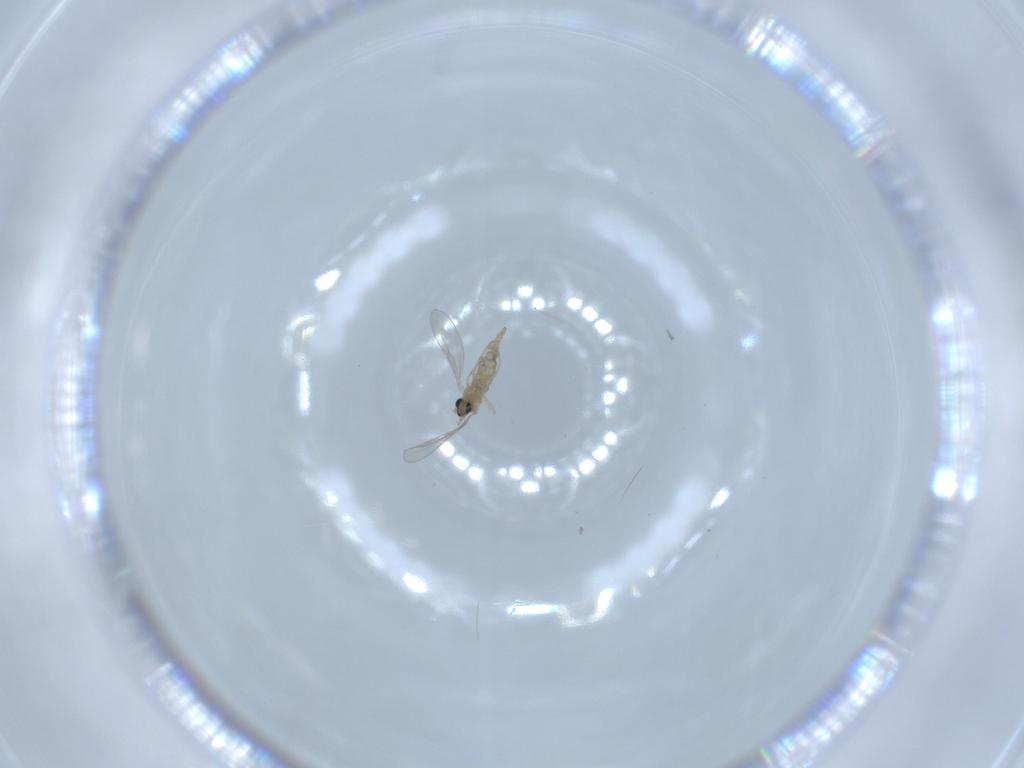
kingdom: Animalia
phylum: Arthropoda
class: Insecta
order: Diptera
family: Cecidomyiidae
